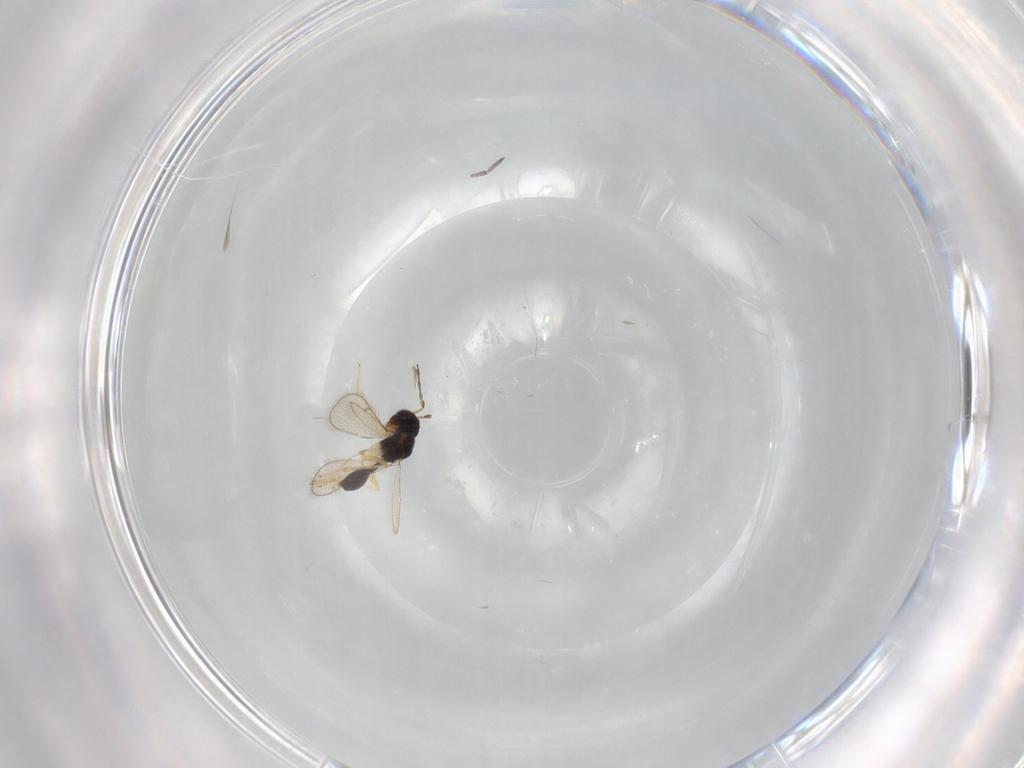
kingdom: Animalia
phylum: Arthropoda
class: Insecta
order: Hymenoptera
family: Diparidae
